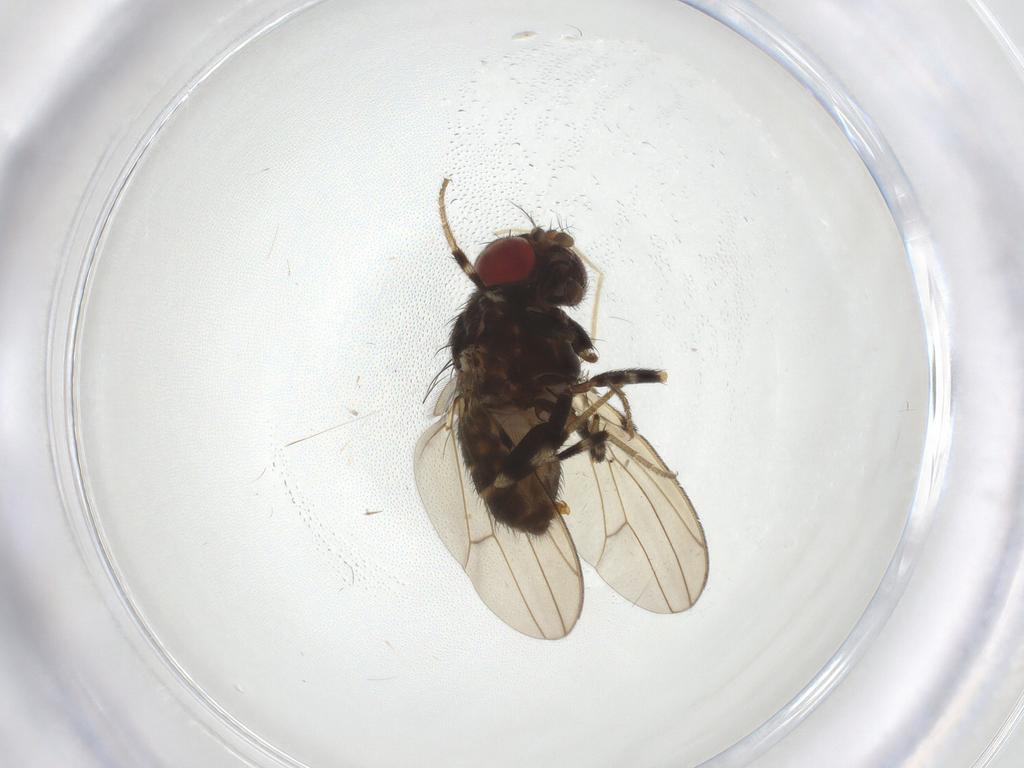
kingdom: Animalia
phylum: Arthropoda
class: Insecta
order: Diptera
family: Drosophilidae
